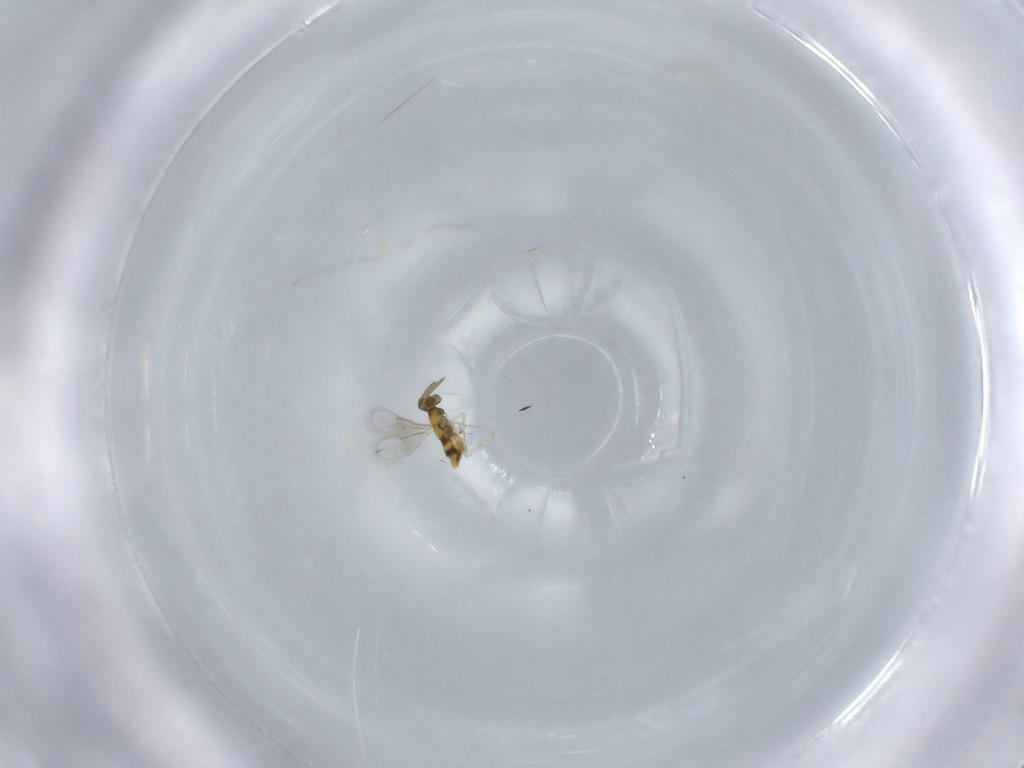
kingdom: Animalia
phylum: Arthropoda
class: Insecta
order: Hymenoptera
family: Aphelinidae
